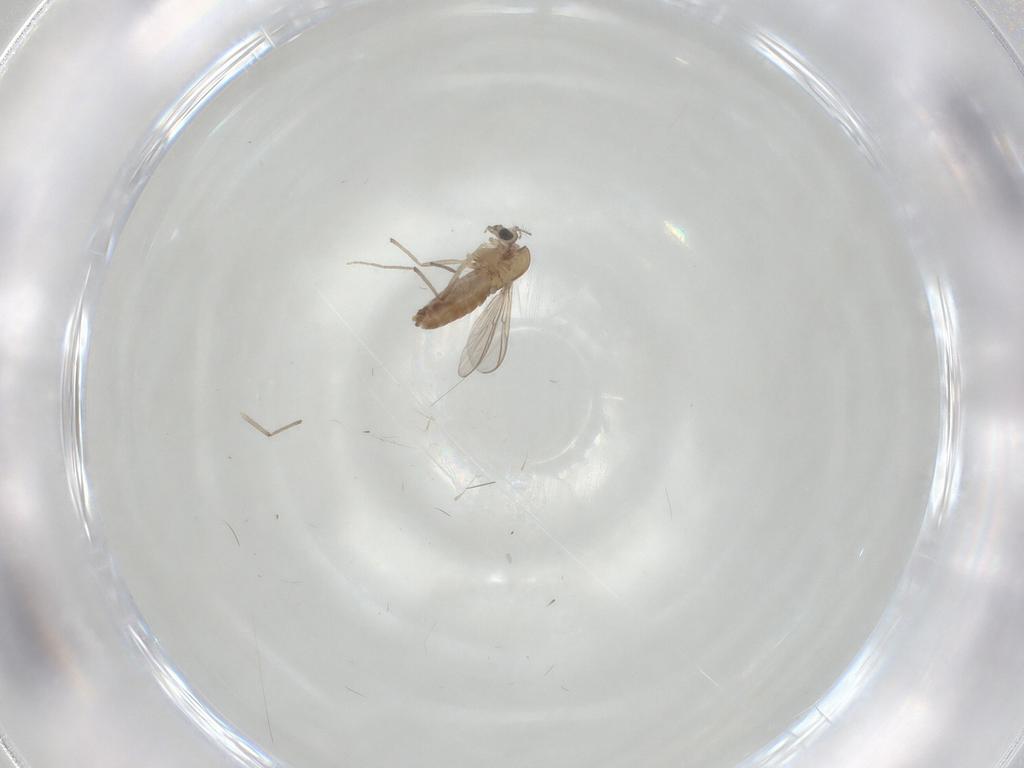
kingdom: Animalia
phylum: Arthropoda
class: Insecta
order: Diptera
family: Chironomidae
